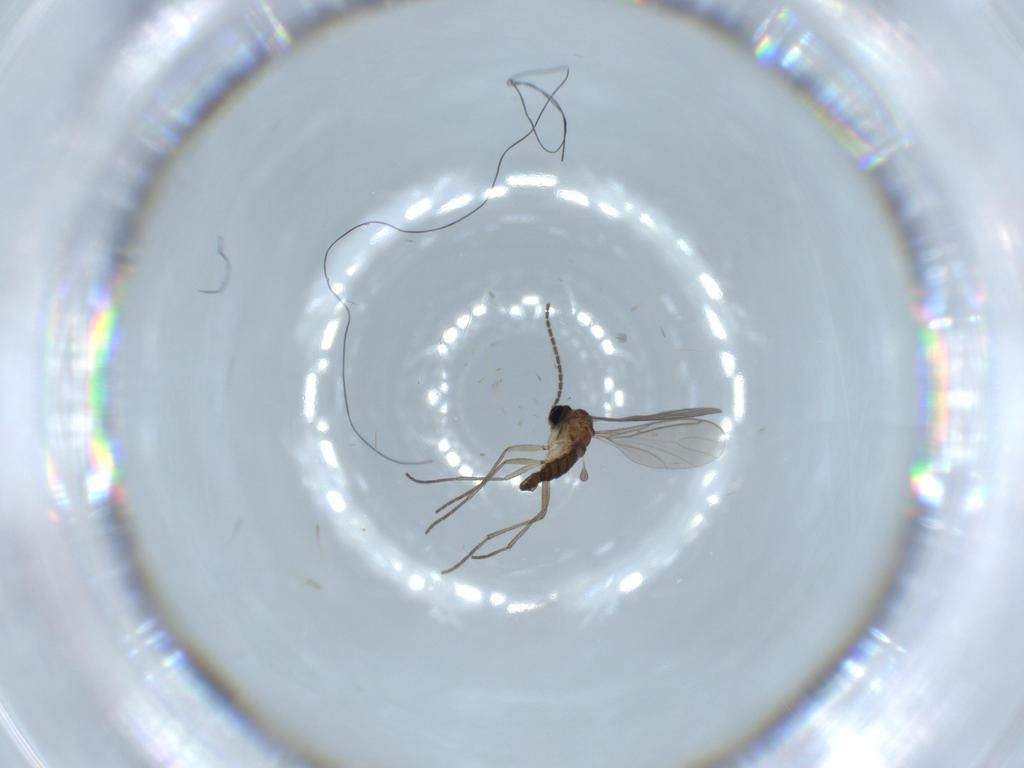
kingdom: Animalia
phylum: Arthropoda
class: Insecta
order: Diptera
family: Sciaridae
